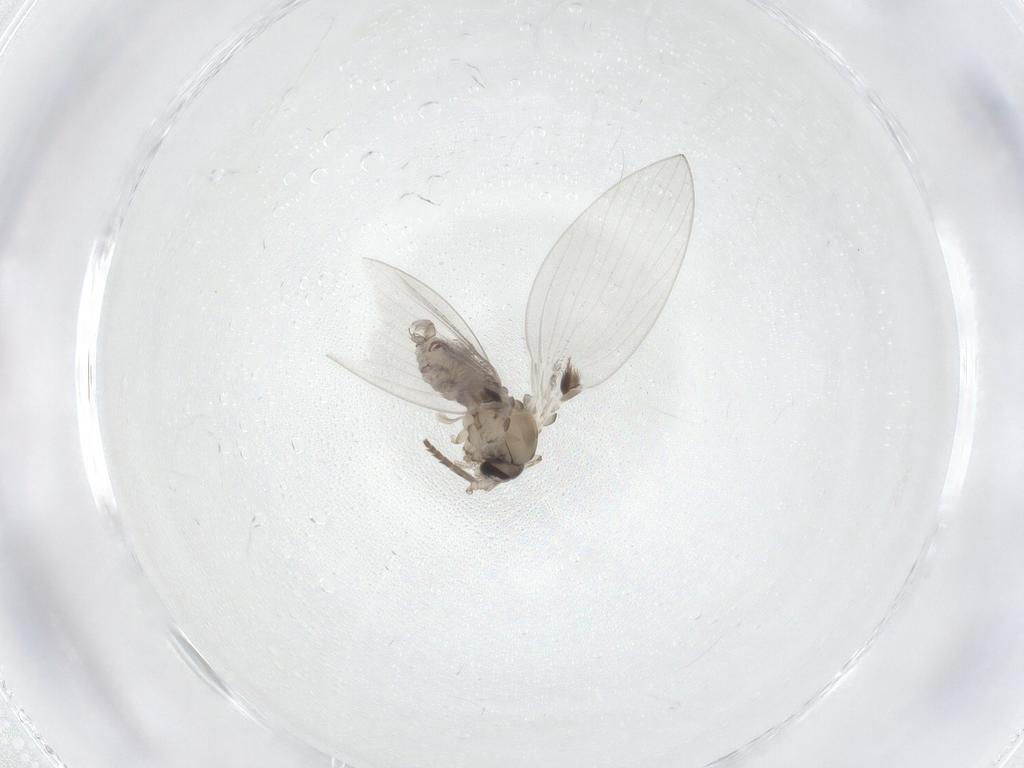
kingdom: Animalia
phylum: Arthropoda
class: Insecta
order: Diptera
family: Psychodidae
